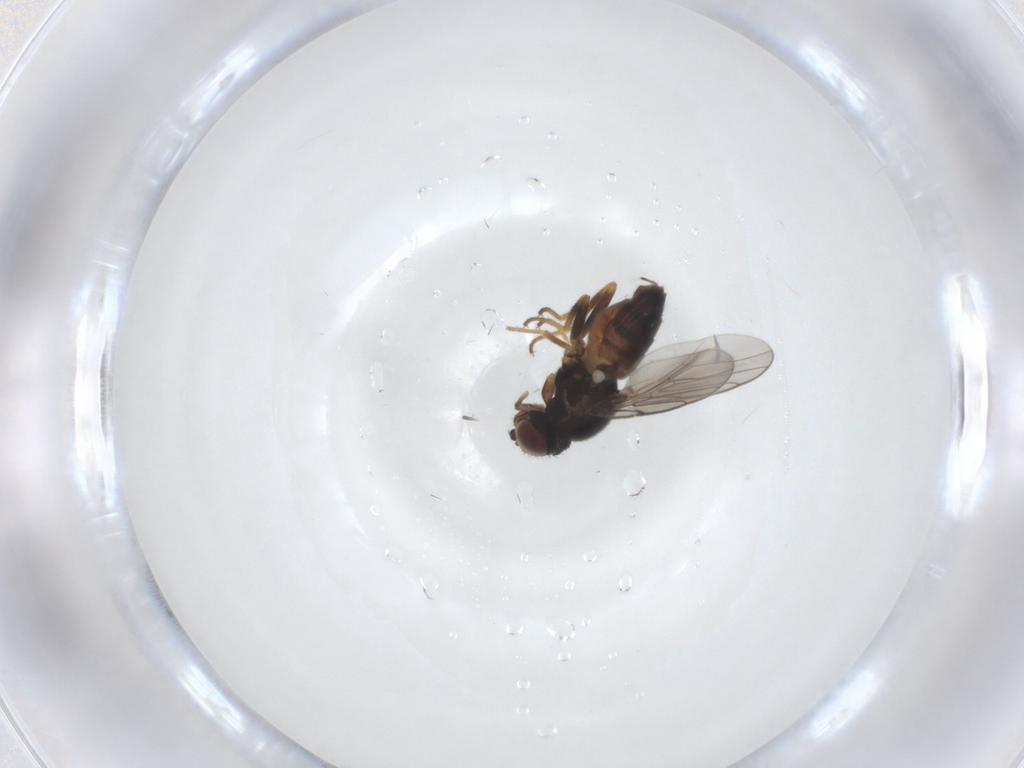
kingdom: Animalia
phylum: Arthropoda
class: Insecta
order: Diptera
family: Chloropidae
